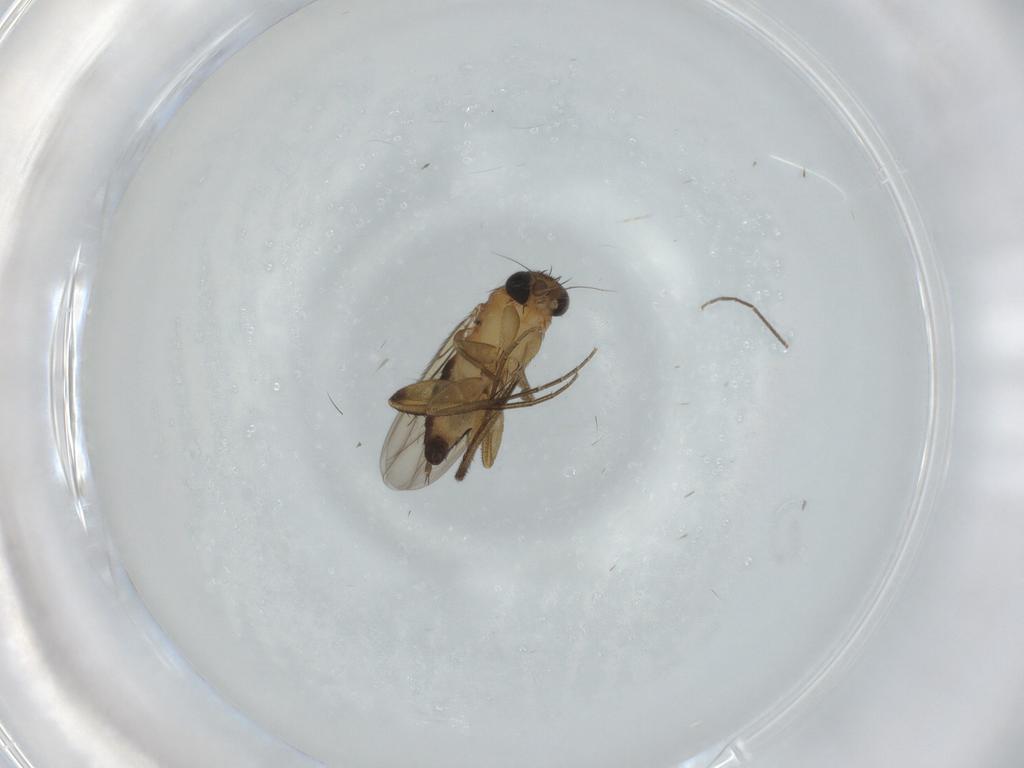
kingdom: Animalia
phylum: Arthropoda
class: Insecta
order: Diptera
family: Phoridae
